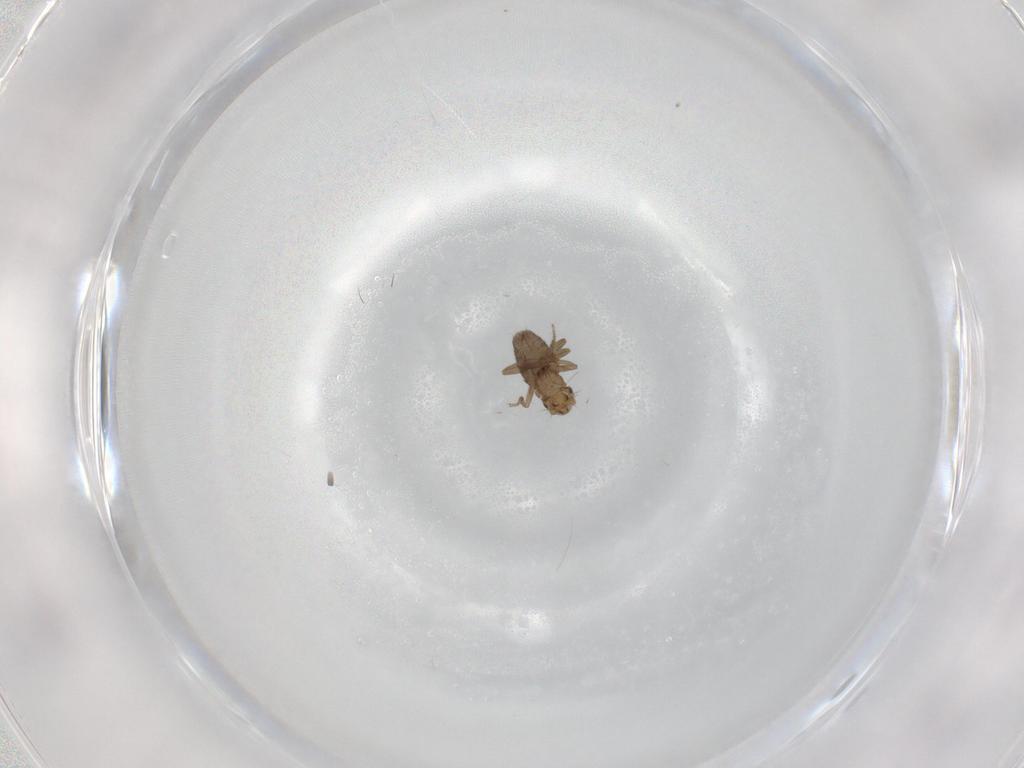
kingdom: Animalia
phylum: Arthropoda
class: Insecta
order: Diptera
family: Phoridae
